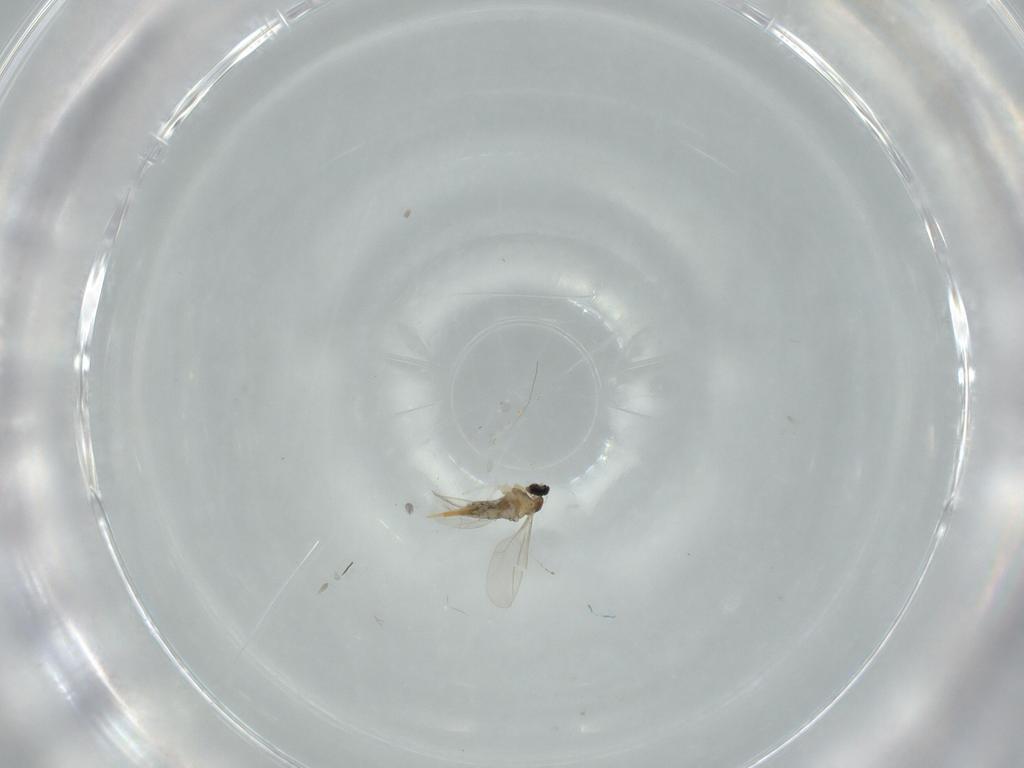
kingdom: Animalia
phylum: Arthropoda
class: Insecta
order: Diptera
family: Cecidomyiidae
